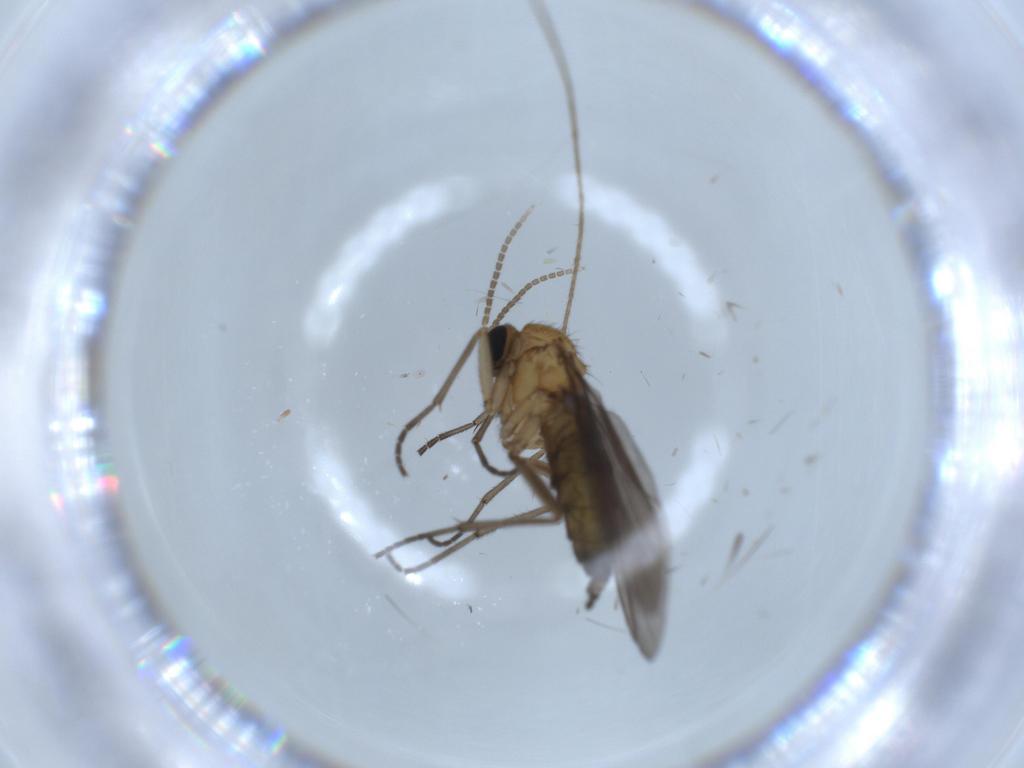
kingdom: Animalia
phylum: Arthropoda
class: Insecta
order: Diptera
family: Sciaridae
